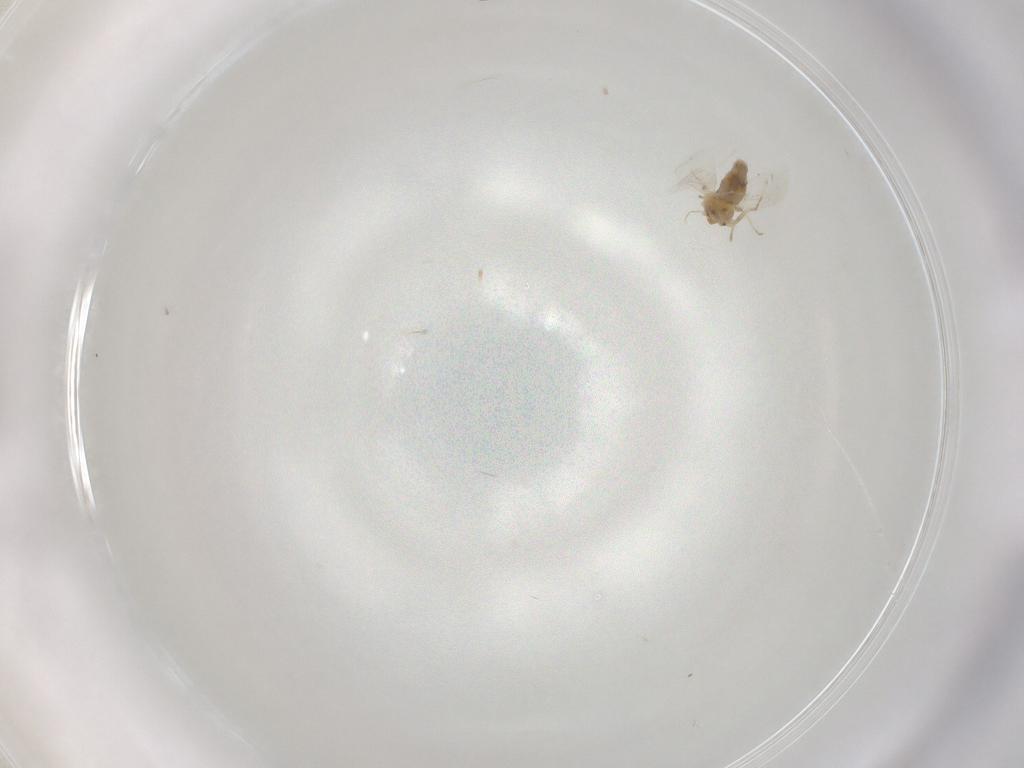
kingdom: Animalia
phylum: Arthropoda
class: Insecta
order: Hemiptera
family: Aleyrodidae
